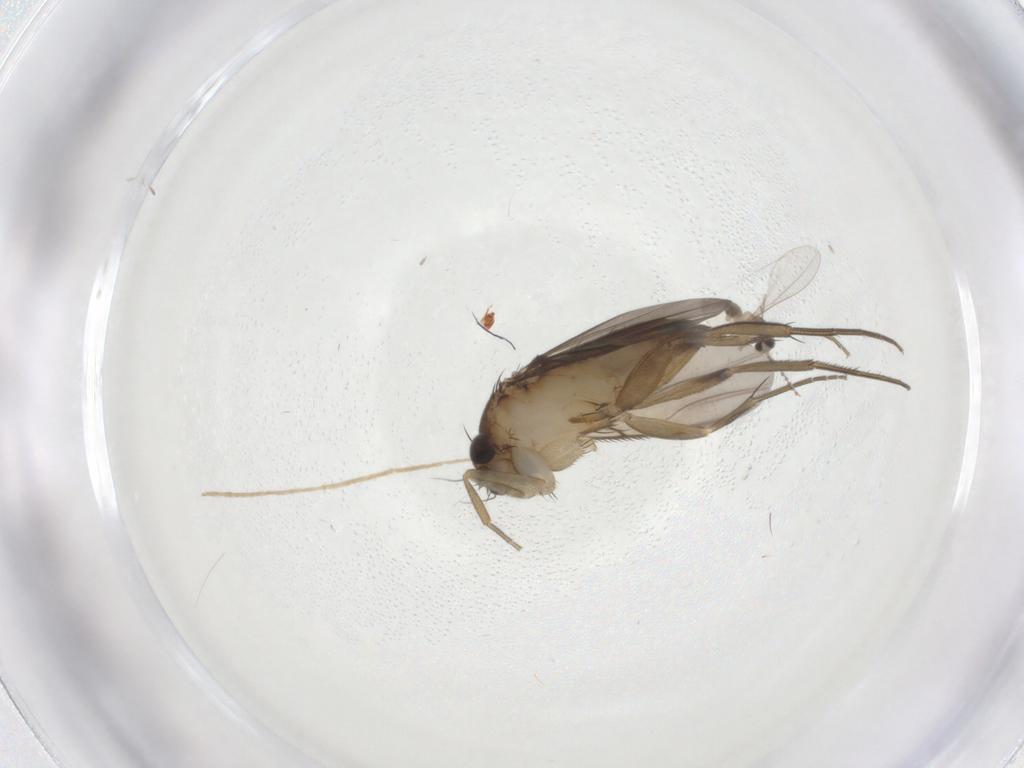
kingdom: Animalia
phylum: Arthropoda
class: Insecta
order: Diptera
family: Phoridae
